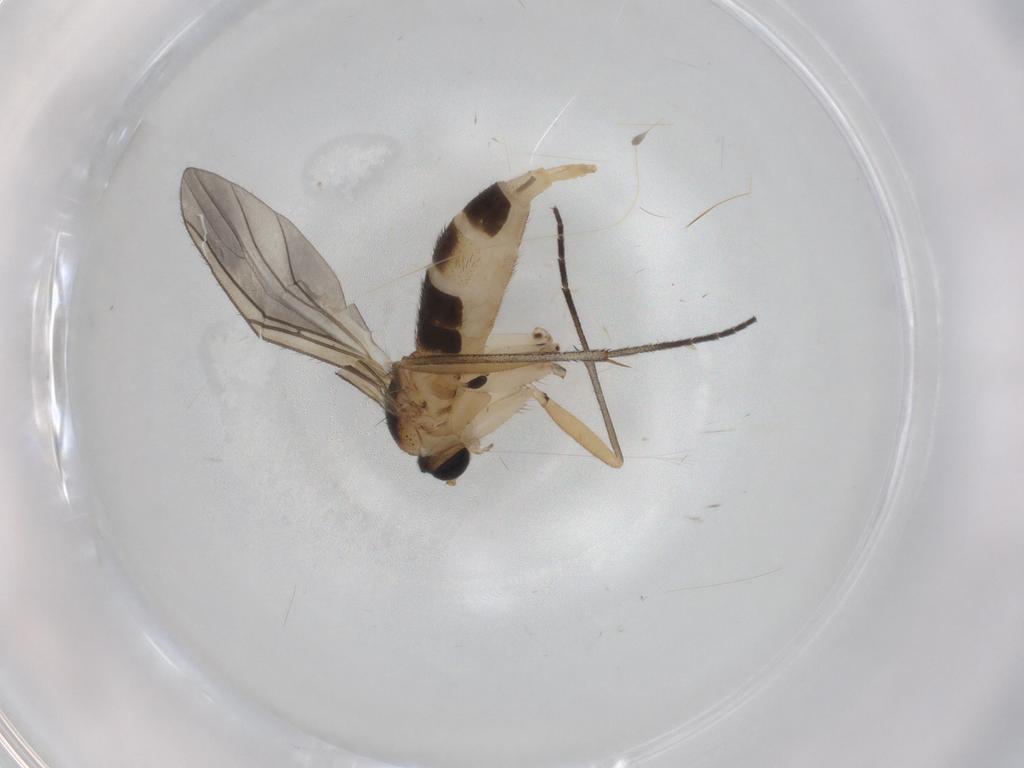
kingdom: Animalia
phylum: Arthropoda
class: Insecta
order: Diptera
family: Sciaridae
